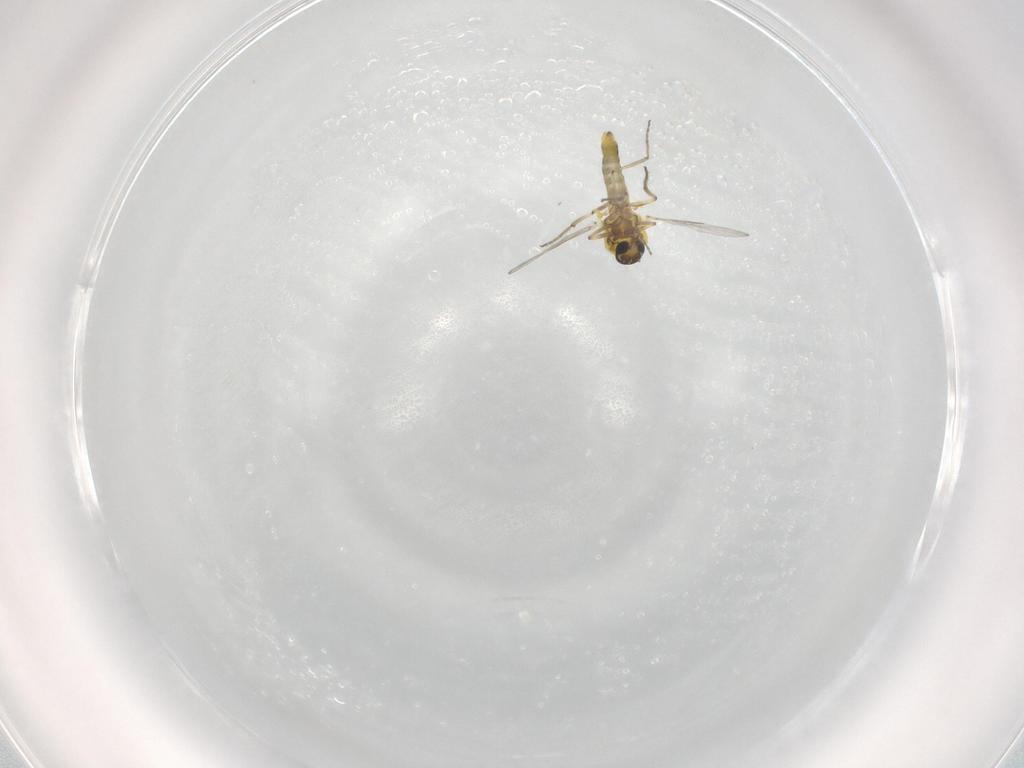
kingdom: Animalia
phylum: Arthropoda
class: Insecta
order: Diptera
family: Ceratopogonidae
